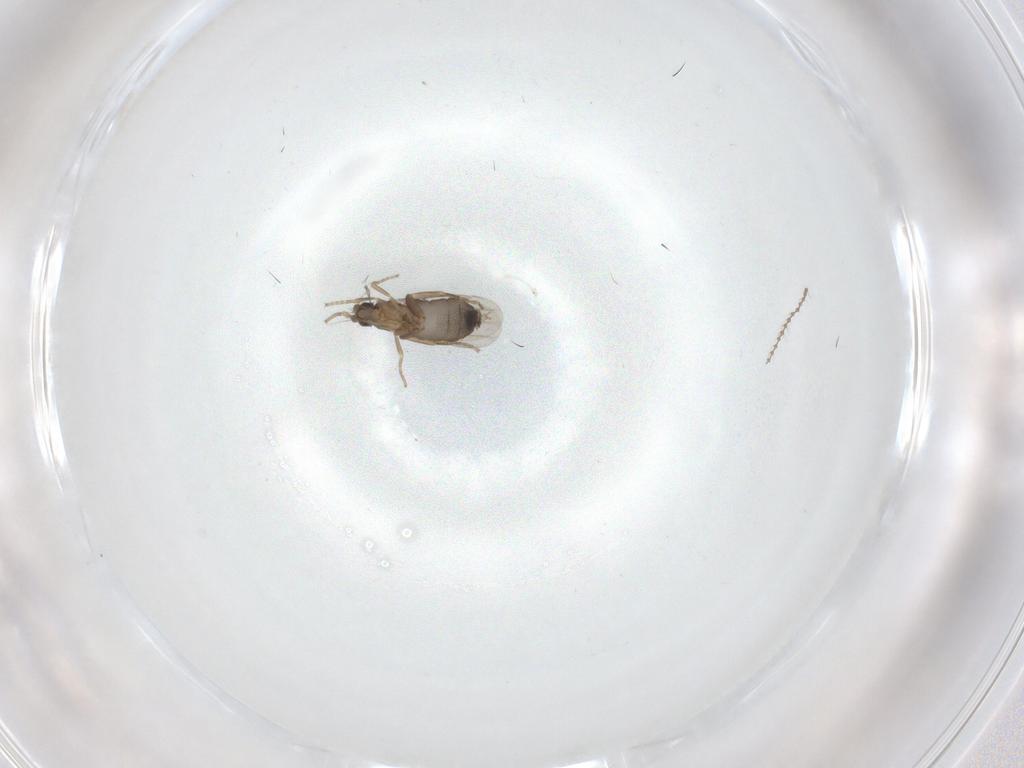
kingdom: Animalia
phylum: Arthropoda
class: Insecta
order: Diptera
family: Cecidomyiidae
